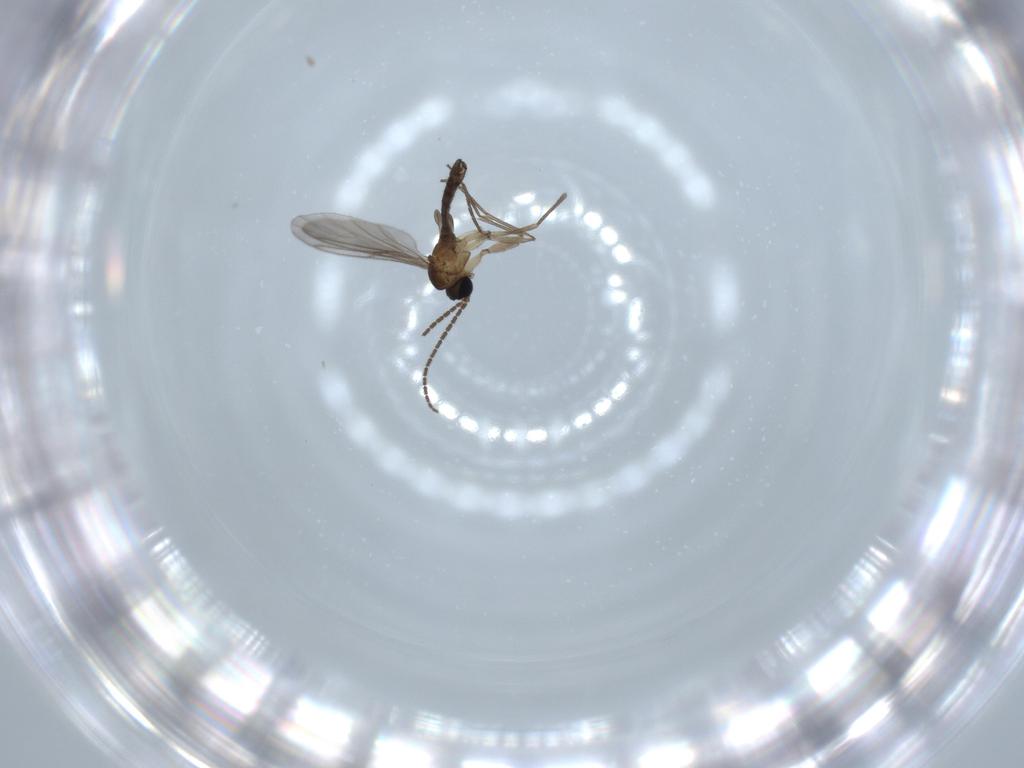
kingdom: Animalia
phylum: Arthropoda
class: Insecta
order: Diptera
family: Sciaridae
